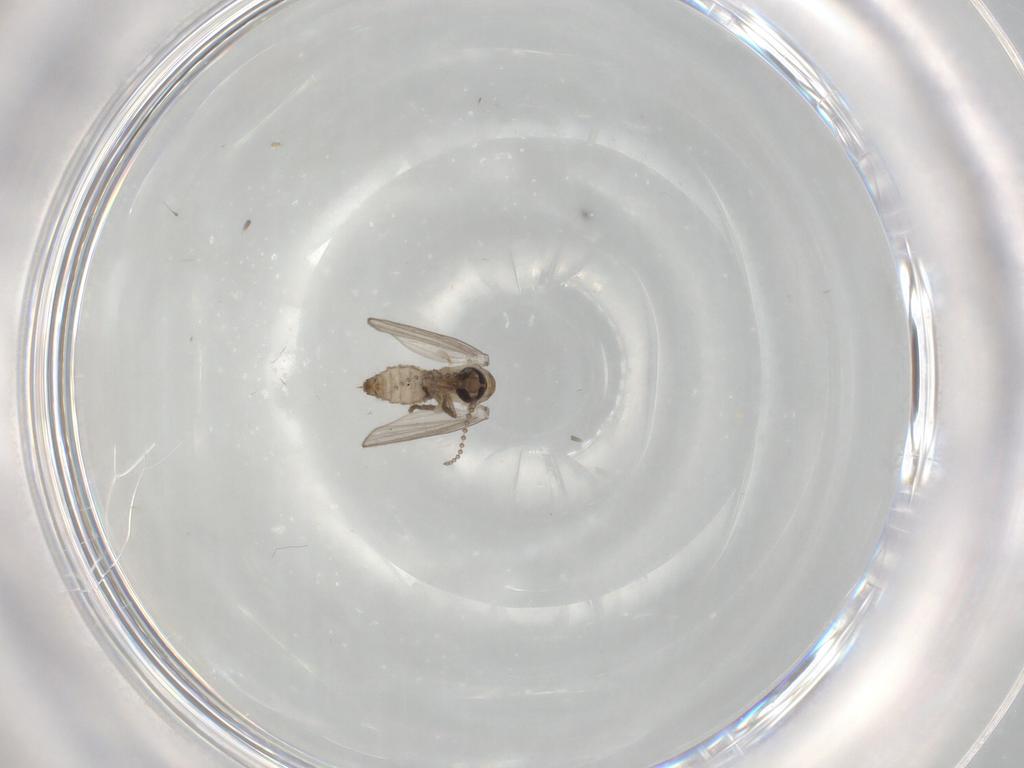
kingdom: Animalia
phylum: Arthropoda
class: Insecta
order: Diptera
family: Psychodidae
